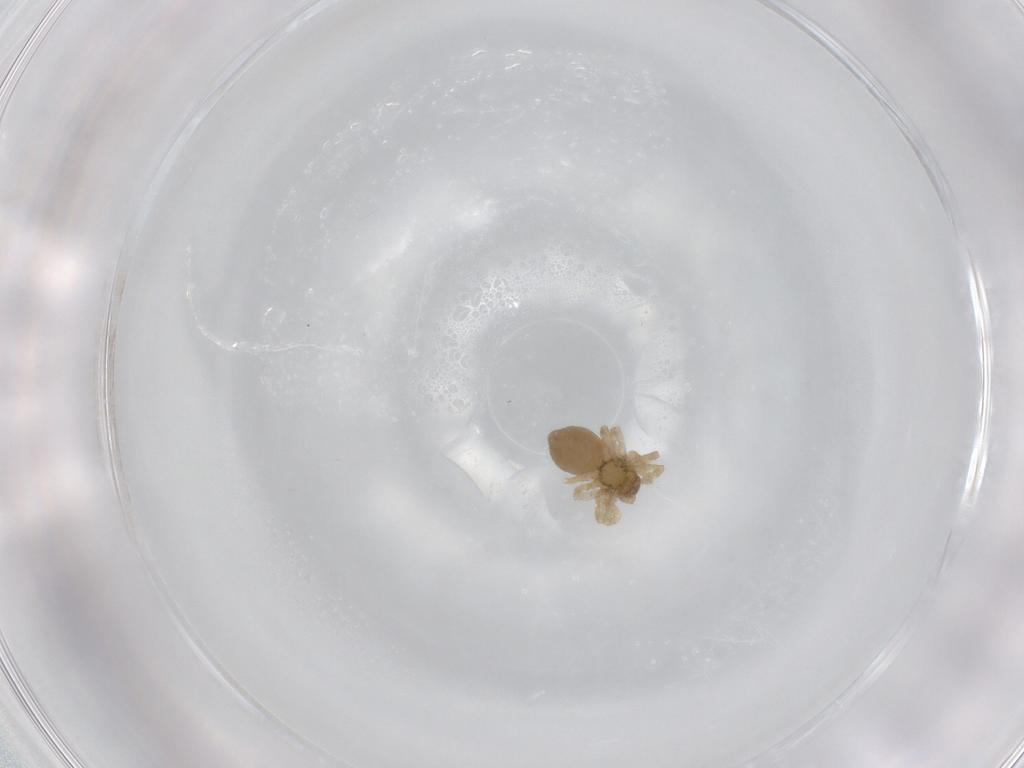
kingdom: Animalia
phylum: Arthropoda
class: Arachnida
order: Araneae
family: Linyphiidae
